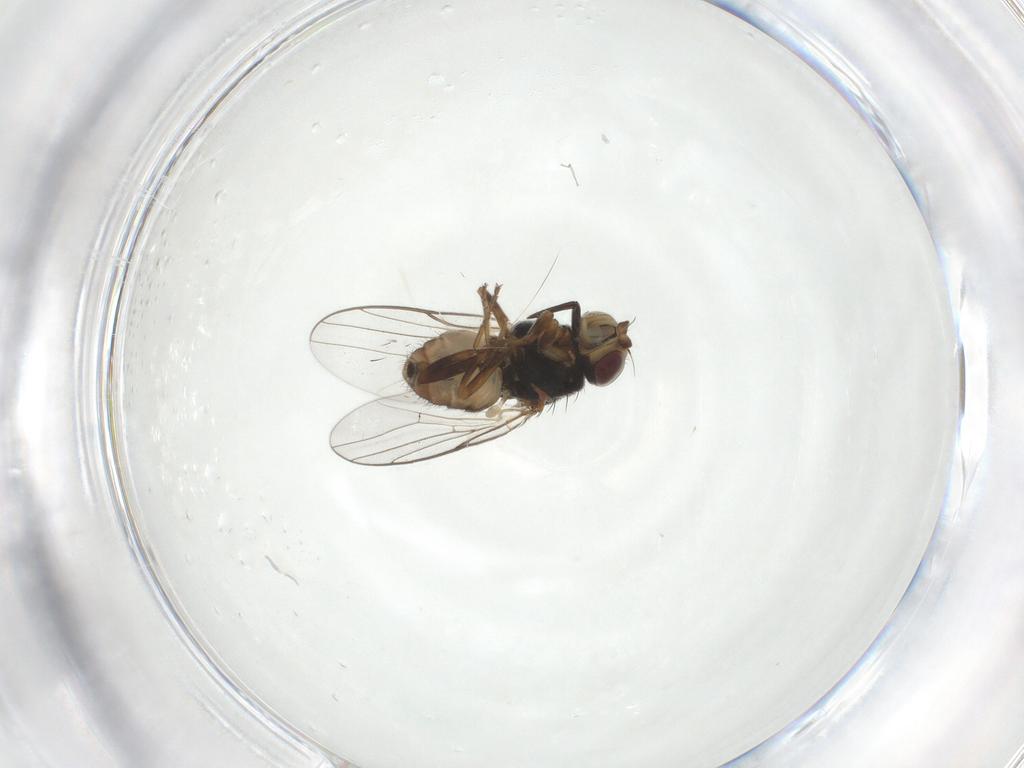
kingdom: Animalia
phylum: Arthropoda
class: Insecta
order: Diptera
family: Chloropidae
